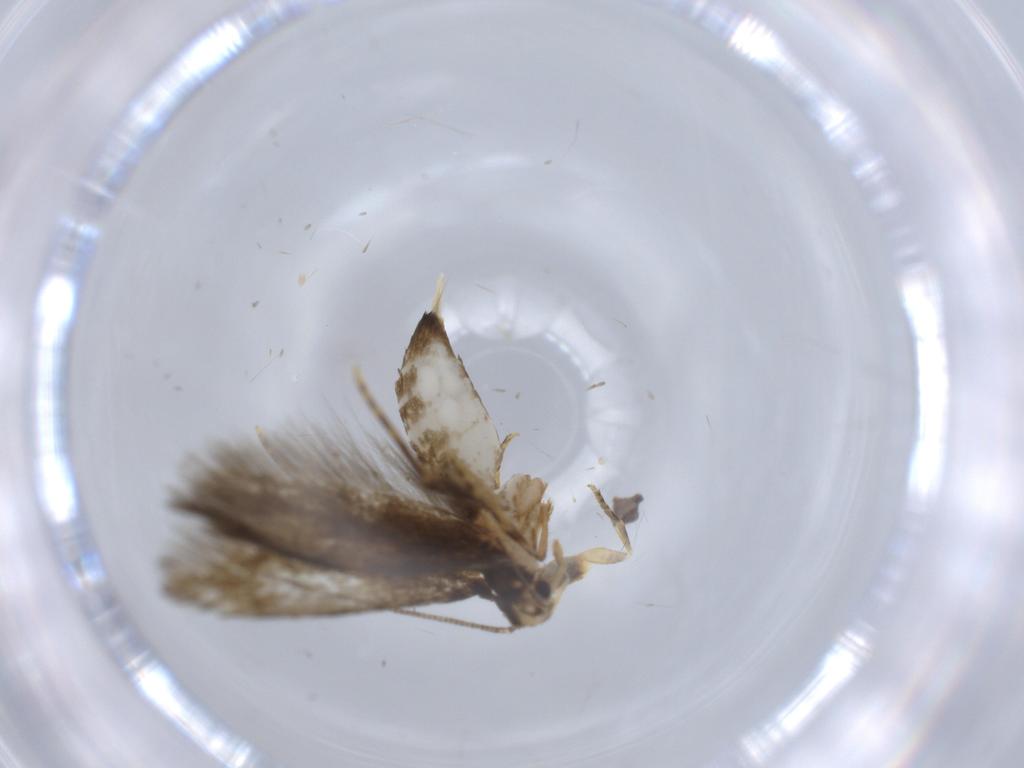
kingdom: Animalia
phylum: Arthropoda
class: Insecta
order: Lepidoptera
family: Tineidae
